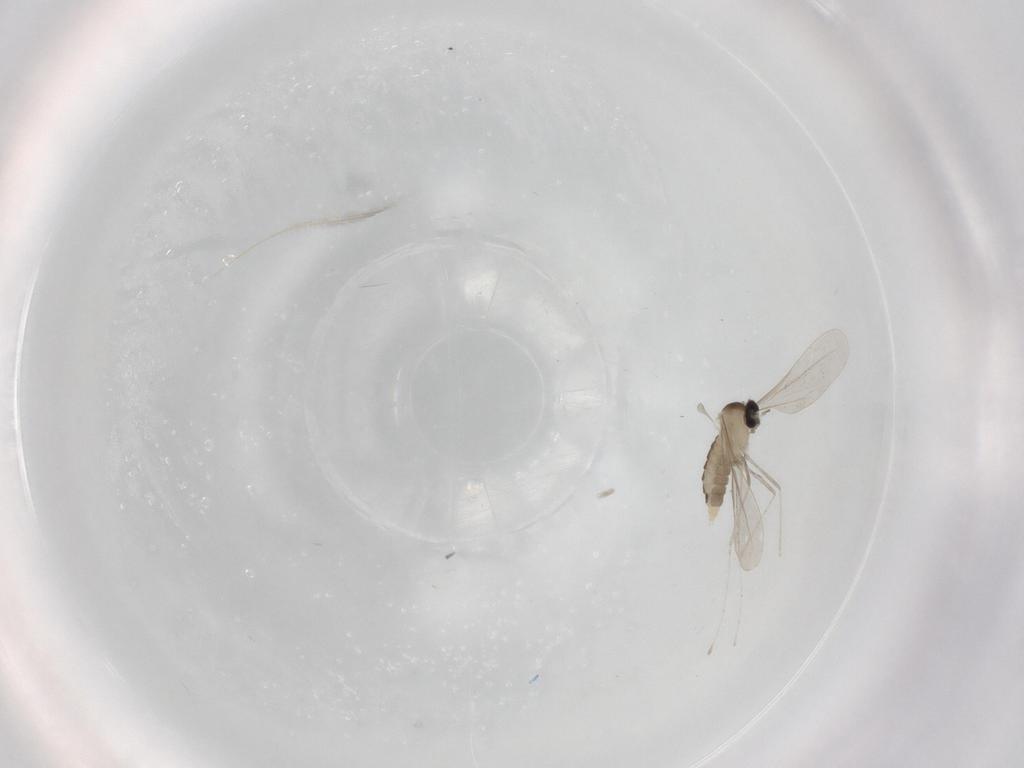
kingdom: Animalia
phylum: Arthropoda
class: Insecta
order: Diptera
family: Cecidomyiidae
